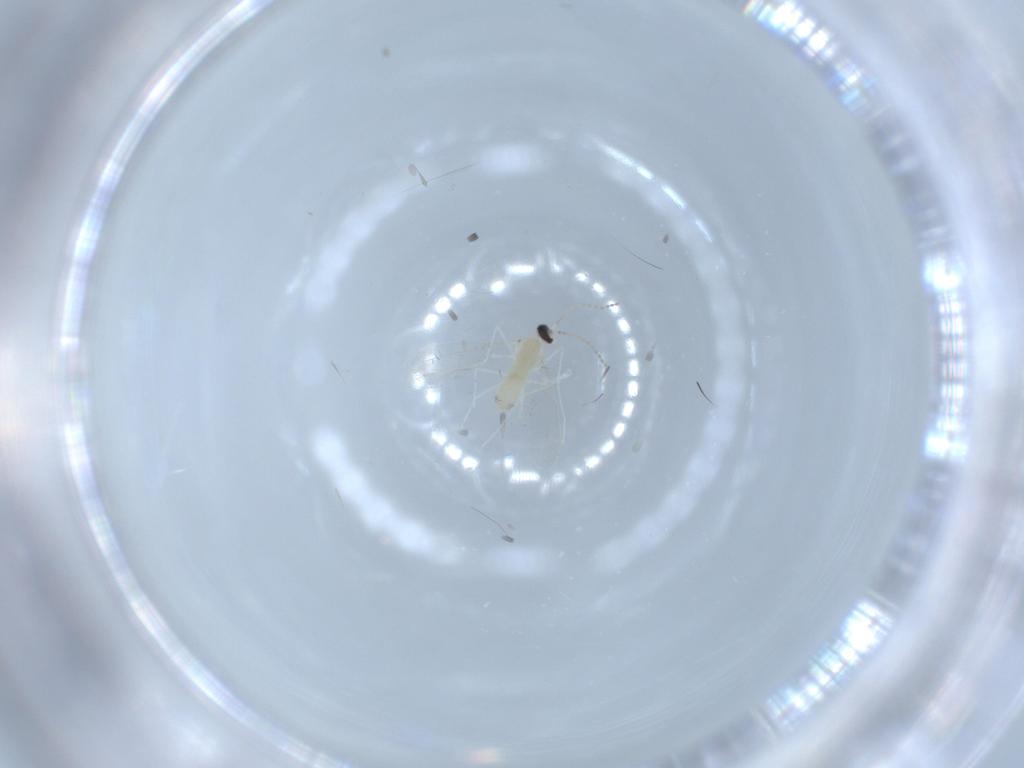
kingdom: Animalia
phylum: Arthropoda
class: Insecta
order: Diptera
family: Cecidomyiidae
